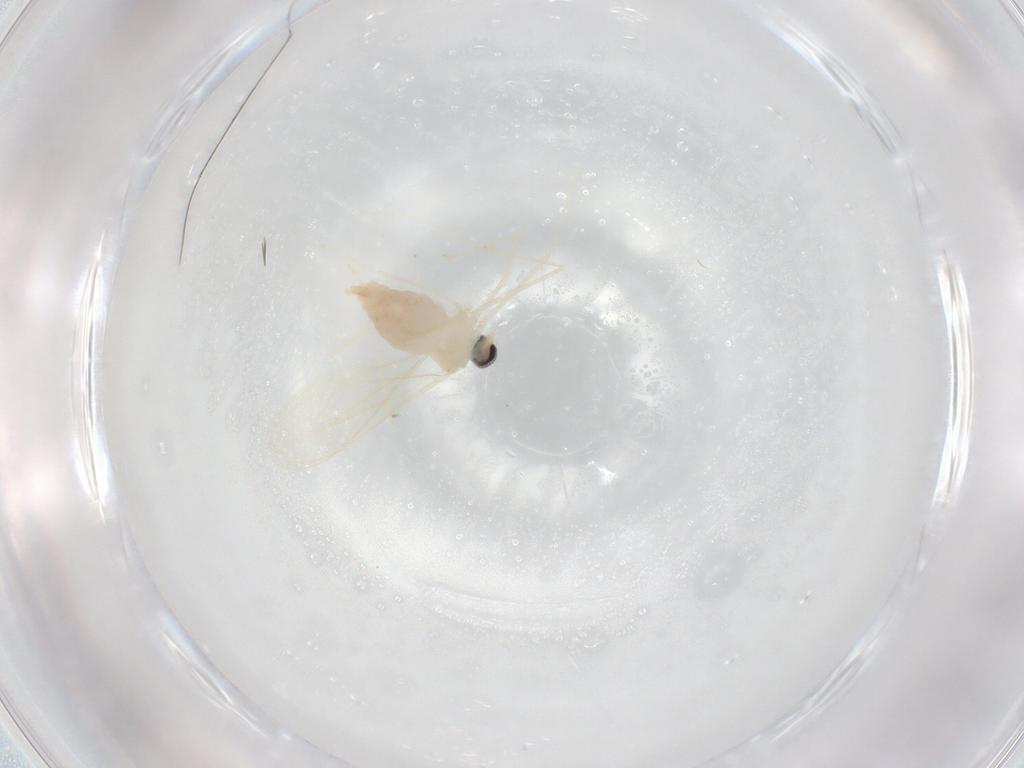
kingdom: Animalia
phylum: Arthropoda
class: Insecta
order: Diptera
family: Cecidomyiidae
